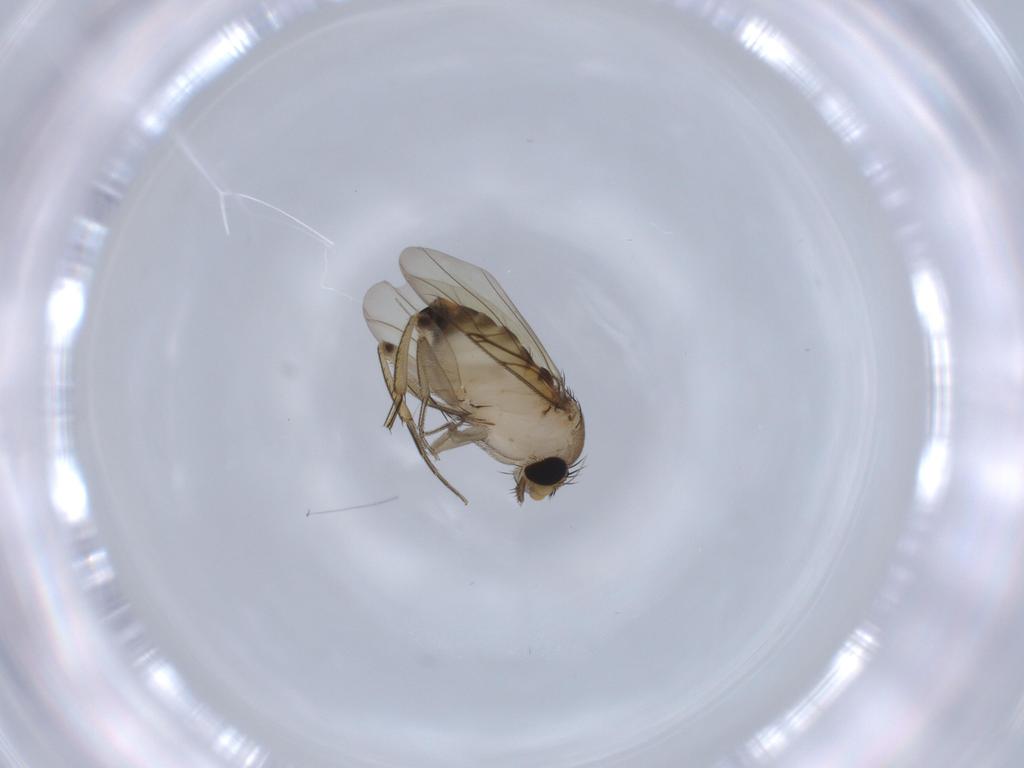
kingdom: Animalia
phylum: Arthropoda
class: Insecta
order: Diptera
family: Phoridae
